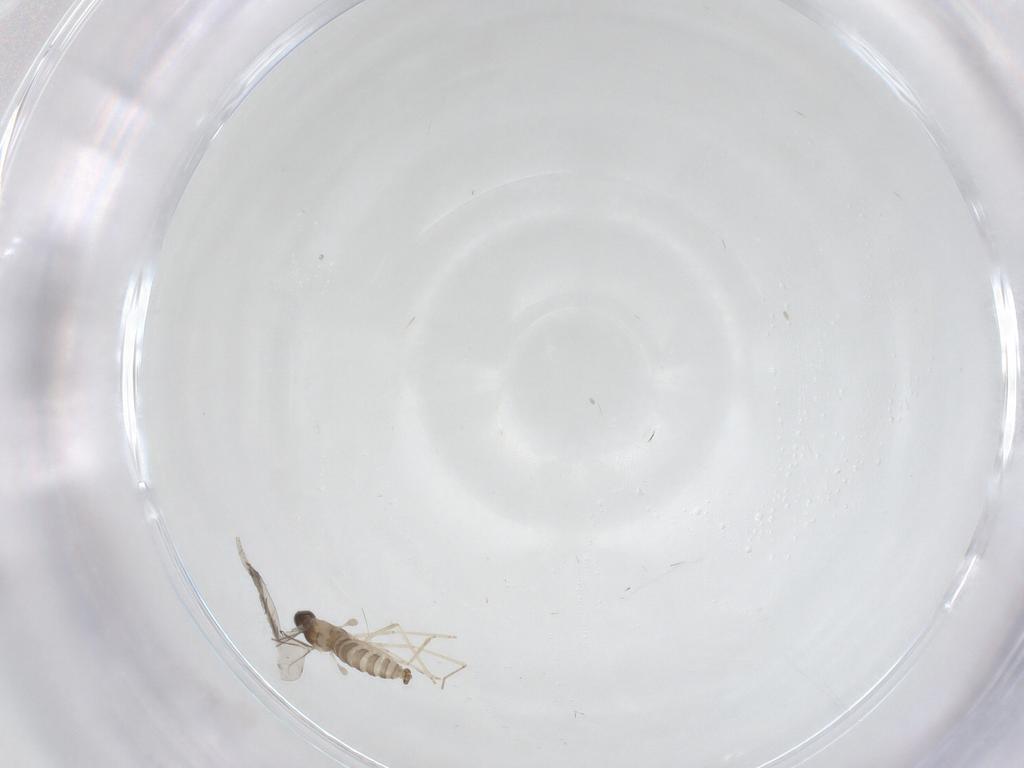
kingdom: Animalia
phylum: Arthropoda
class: Insecta
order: Diptera
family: Cecidomyiidae
